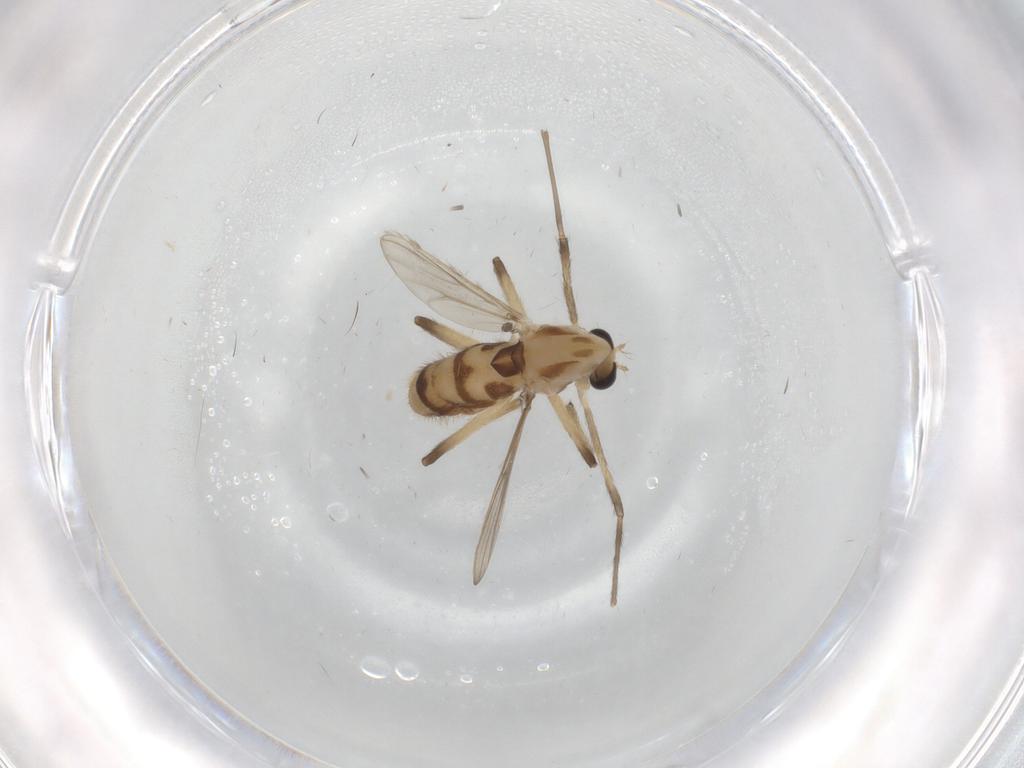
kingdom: Animalia
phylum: Arthropoda
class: Insecta
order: Diptera
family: Chironomidae
